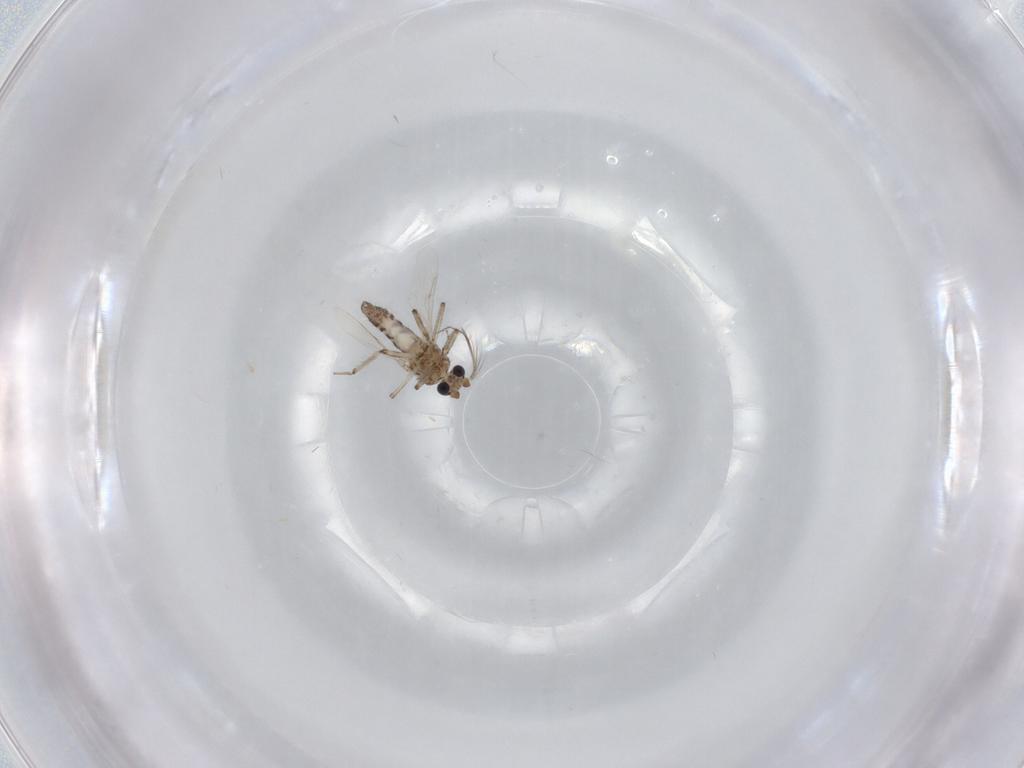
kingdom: Animalia
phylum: Arthropoda
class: Insecta
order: Diptera
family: Ceratopogonidae
